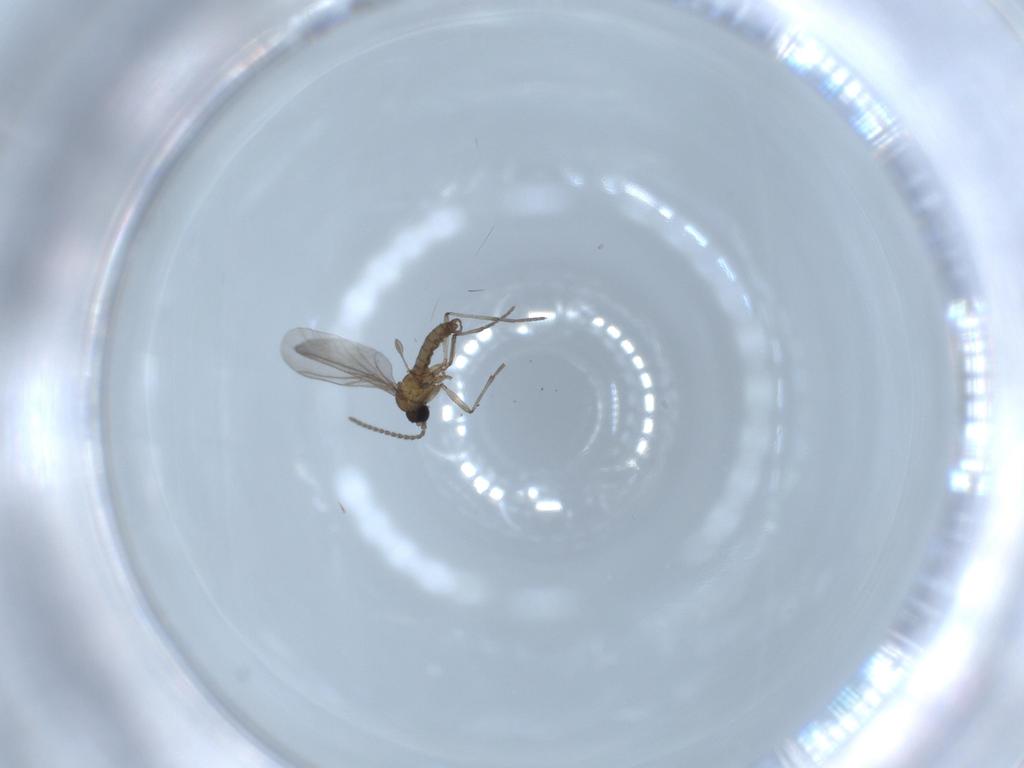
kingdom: Animalia
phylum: Arthropoda
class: Insecta
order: Diptera
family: Sciaridae
